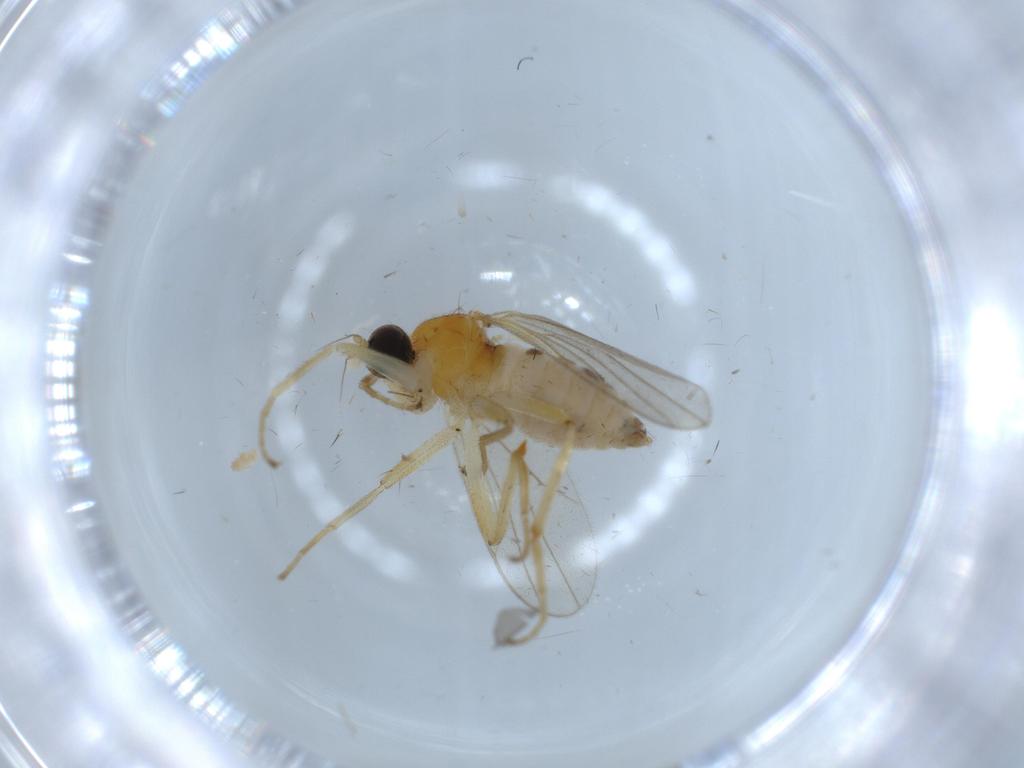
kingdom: Animalia
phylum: Arthropoda
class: Insecta
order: Diptera
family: Hybotidae
